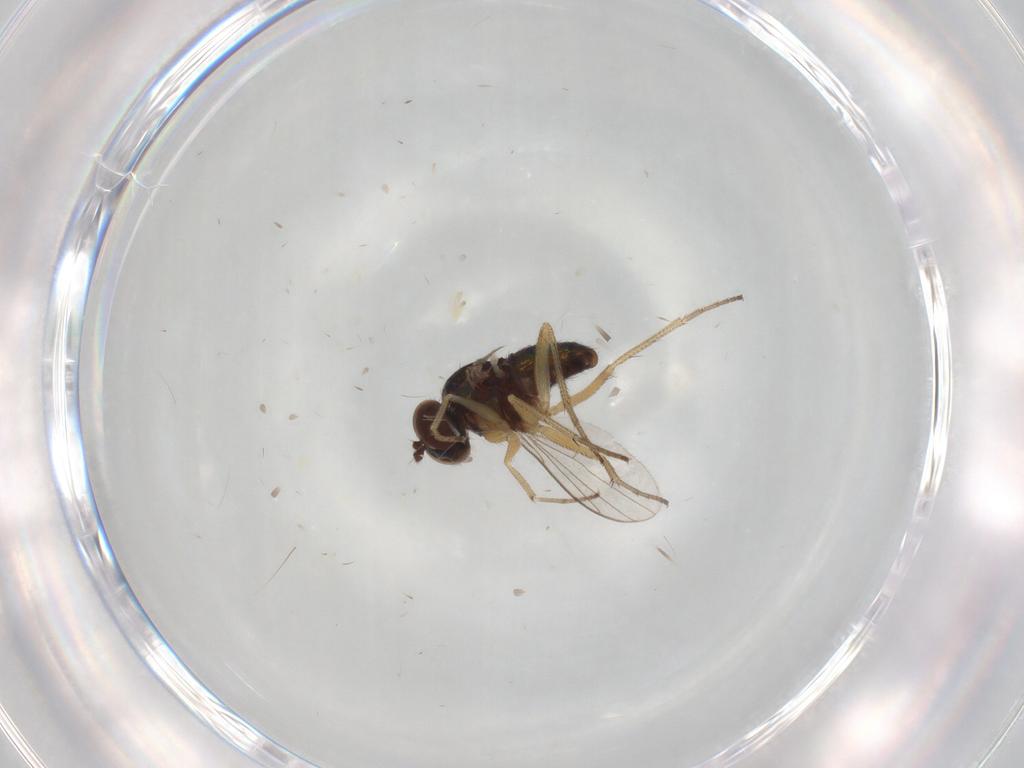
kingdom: Animalia
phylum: Arthropoda
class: Insecta
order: Diptera
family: Dolichopodidae
